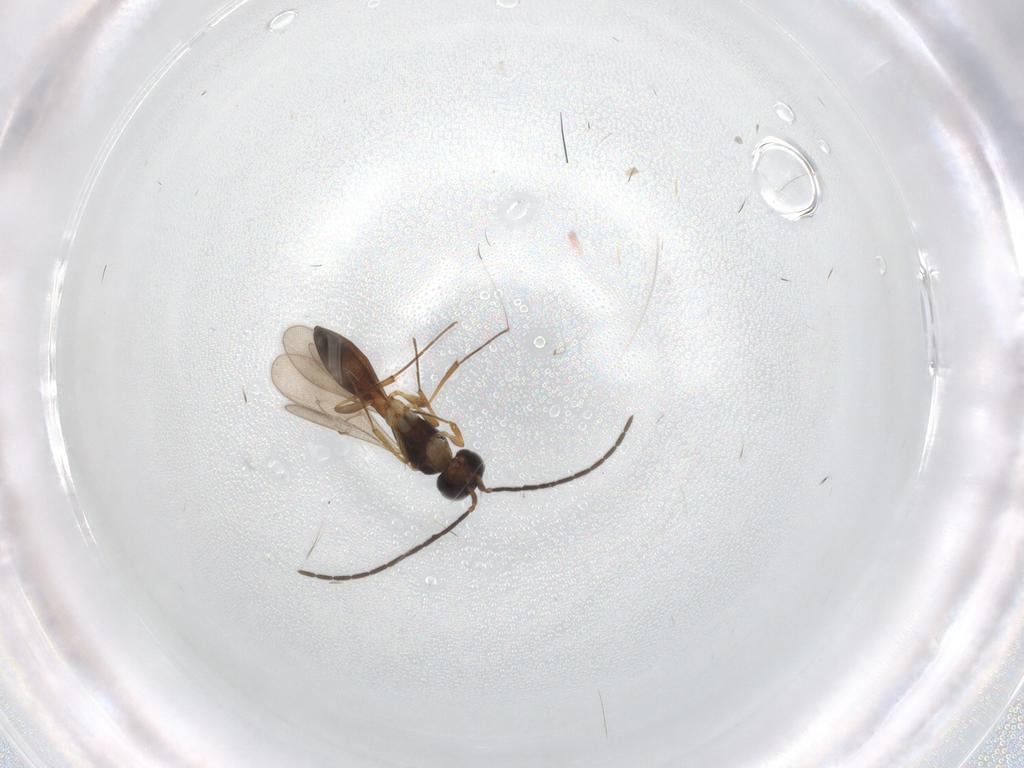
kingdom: Animalia
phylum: Arthropoda
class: Insecta
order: Hymenoptera
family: Scelionidae
